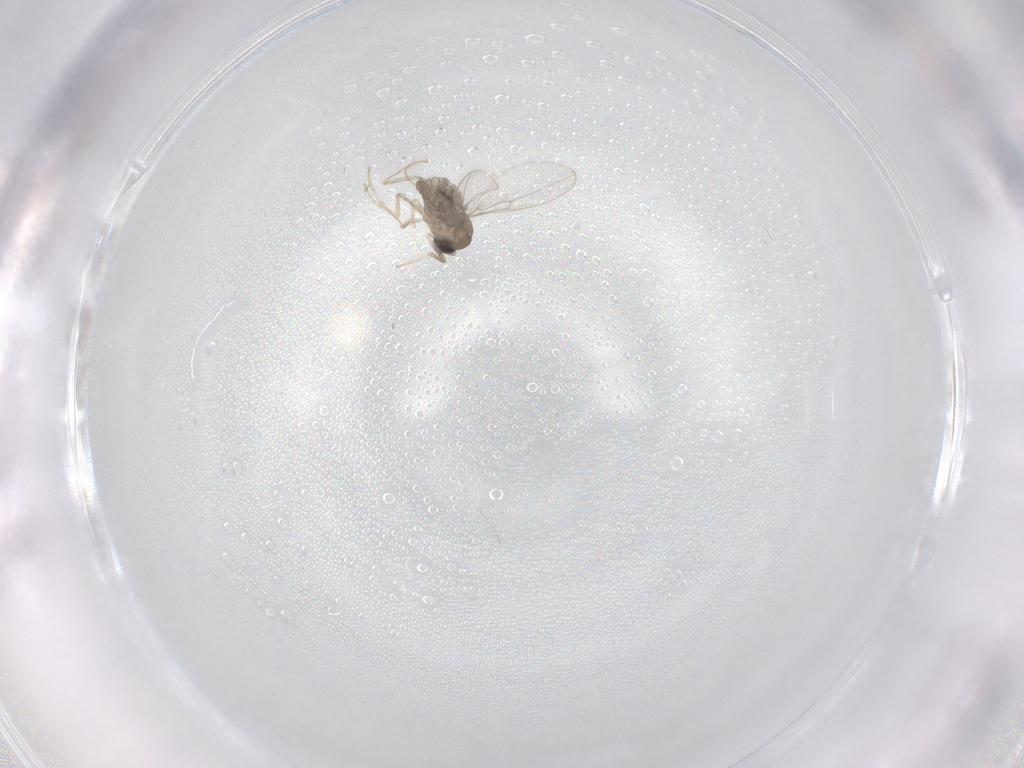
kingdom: Animalia
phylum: Arthropoda
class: Insecta
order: Diptera
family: Cecidomyiidae
